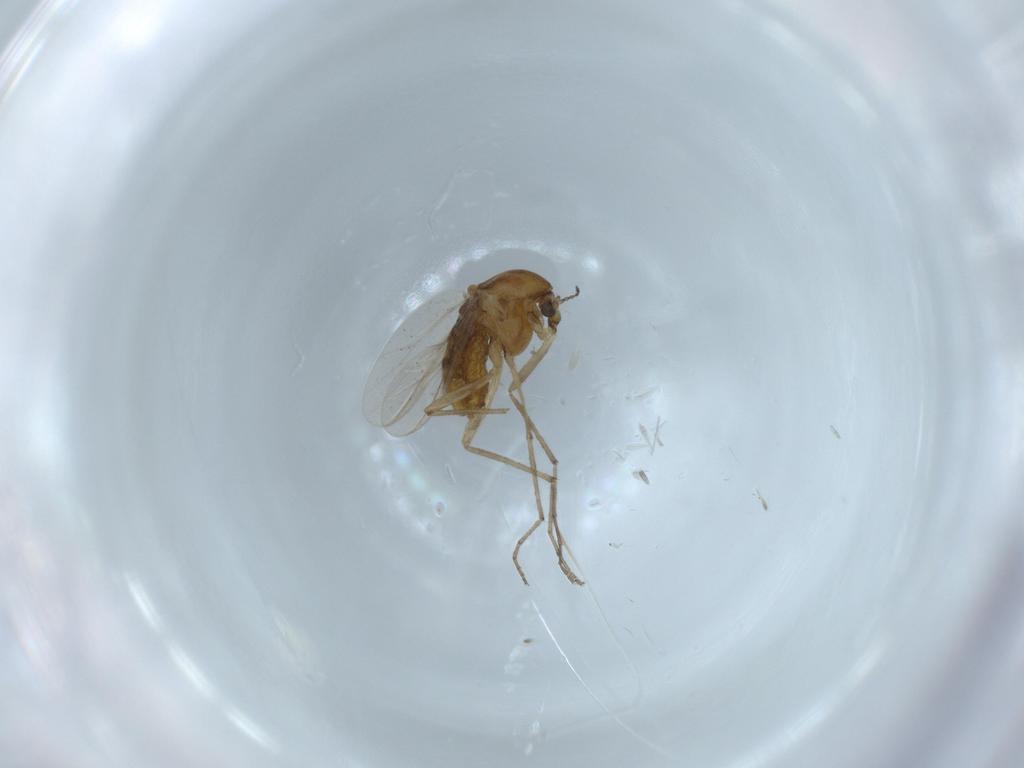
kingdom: Animalia
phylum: Arthropoda
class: Insecta
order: Diptera
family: Chironomidae
